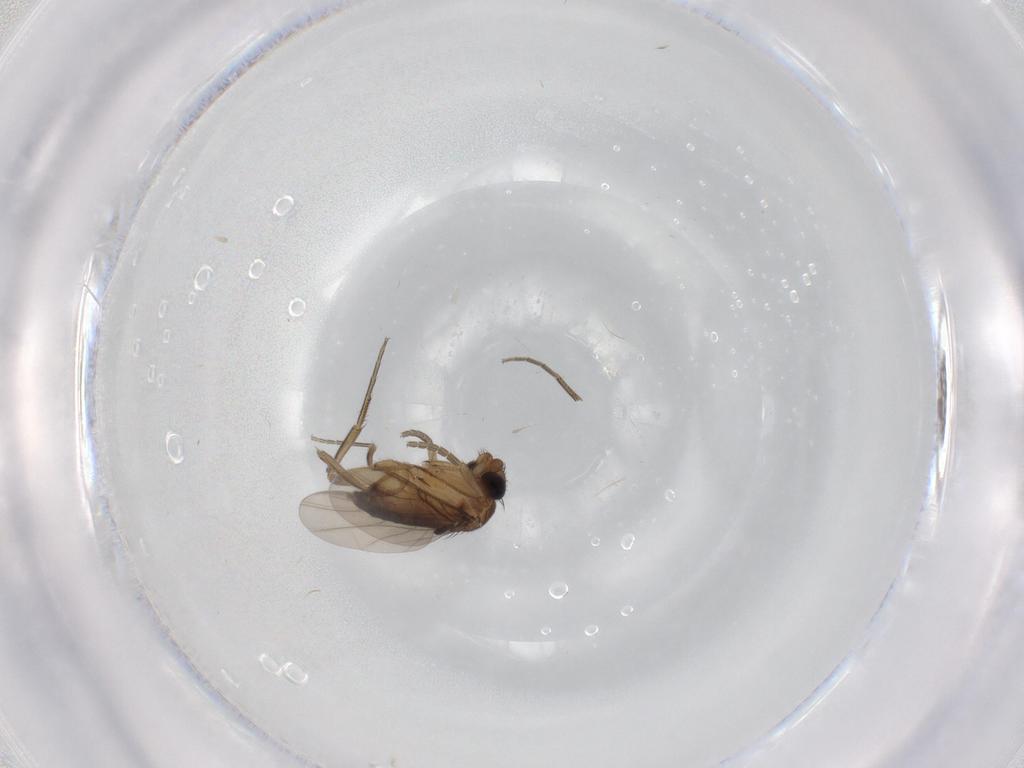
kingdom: Animalia
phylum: Arthropoda
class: Insecta
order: Diptera
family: Phoridae
